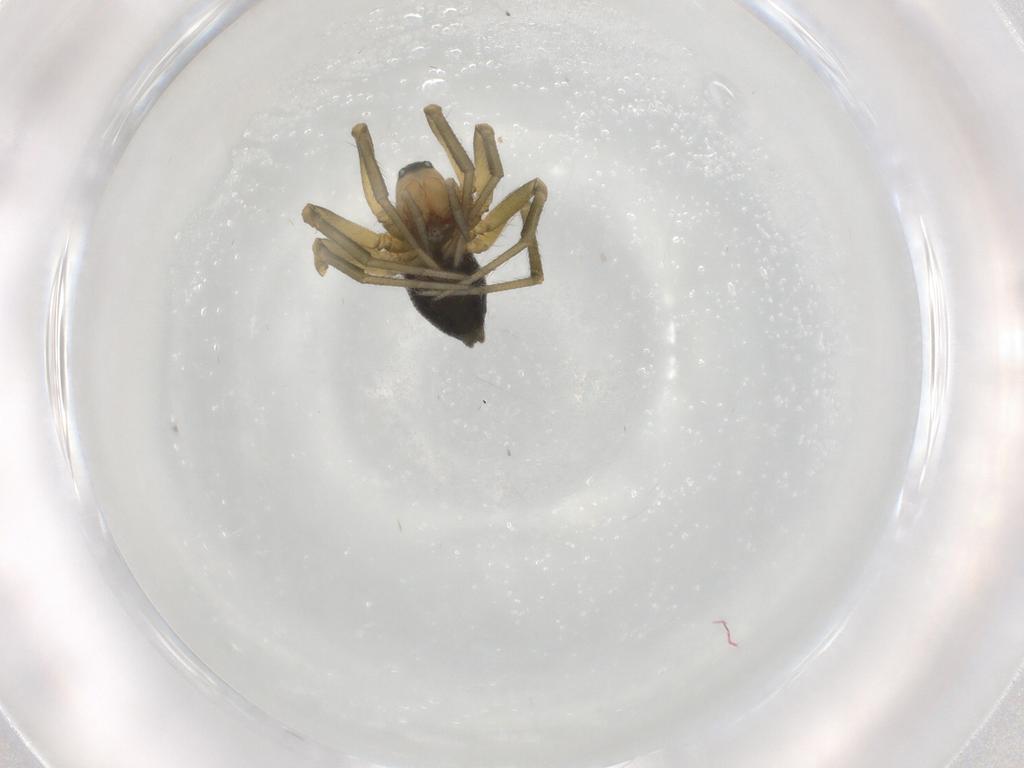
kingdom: Animalia
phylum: Arthropoda
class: Arachnida
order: Araneae
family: Linyphiidae
